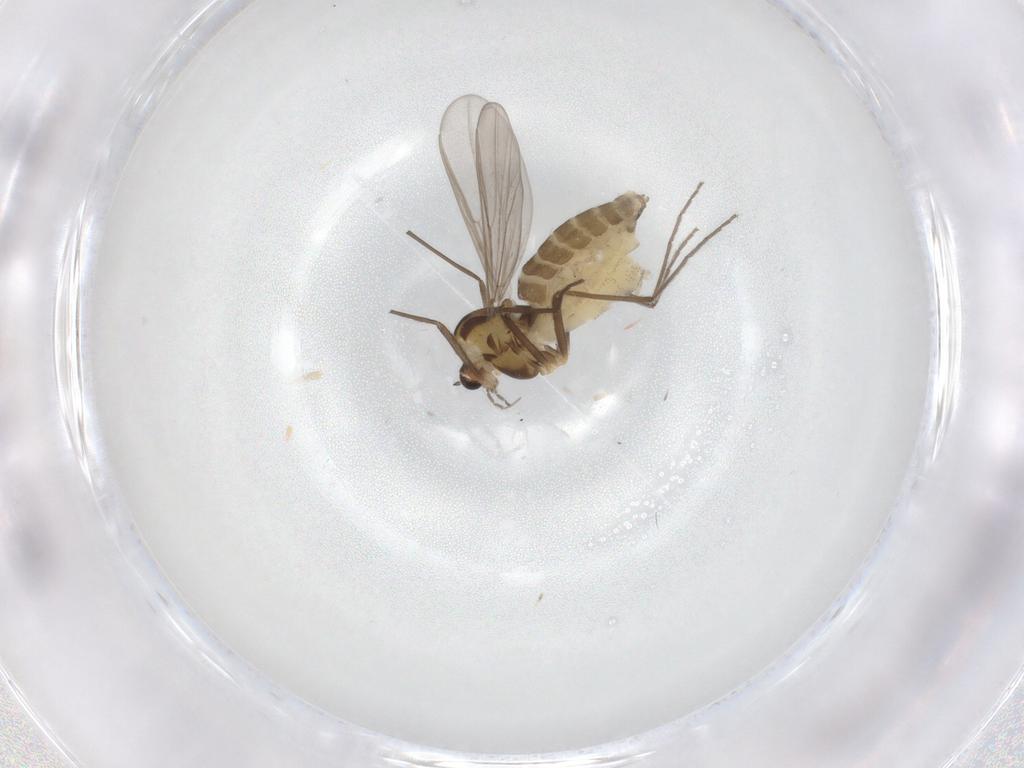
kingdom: Animalia
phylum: Arthropoda
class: Insecta
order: Diptera
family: Chironomidae
